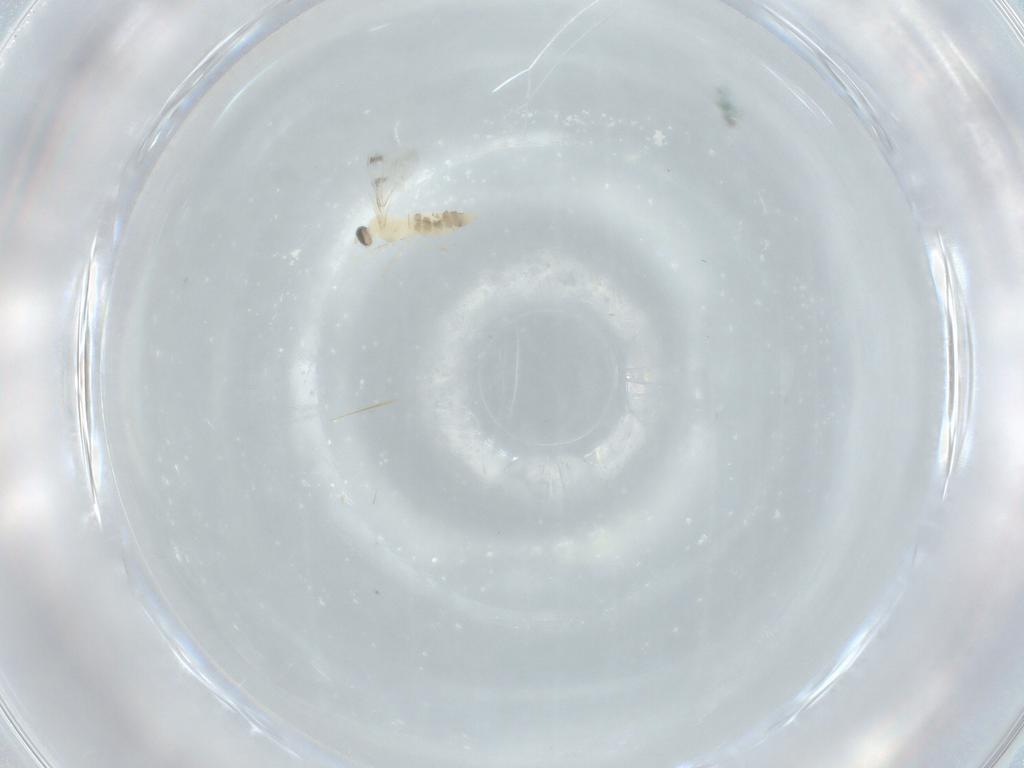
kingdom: Animalia
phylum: Arthropoda
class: Insecta
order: Diptera
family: Cecidomyiidae
